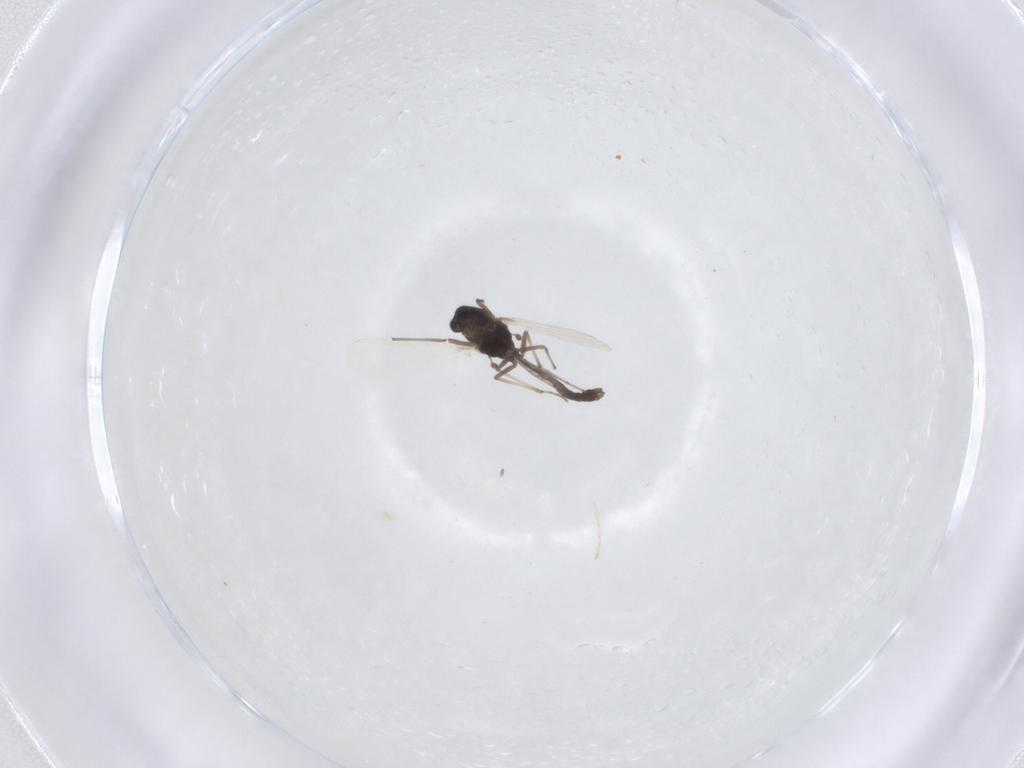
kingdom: Animalia
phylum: Arthropoda
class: Insecta
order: Diptera
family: Chironomidae
